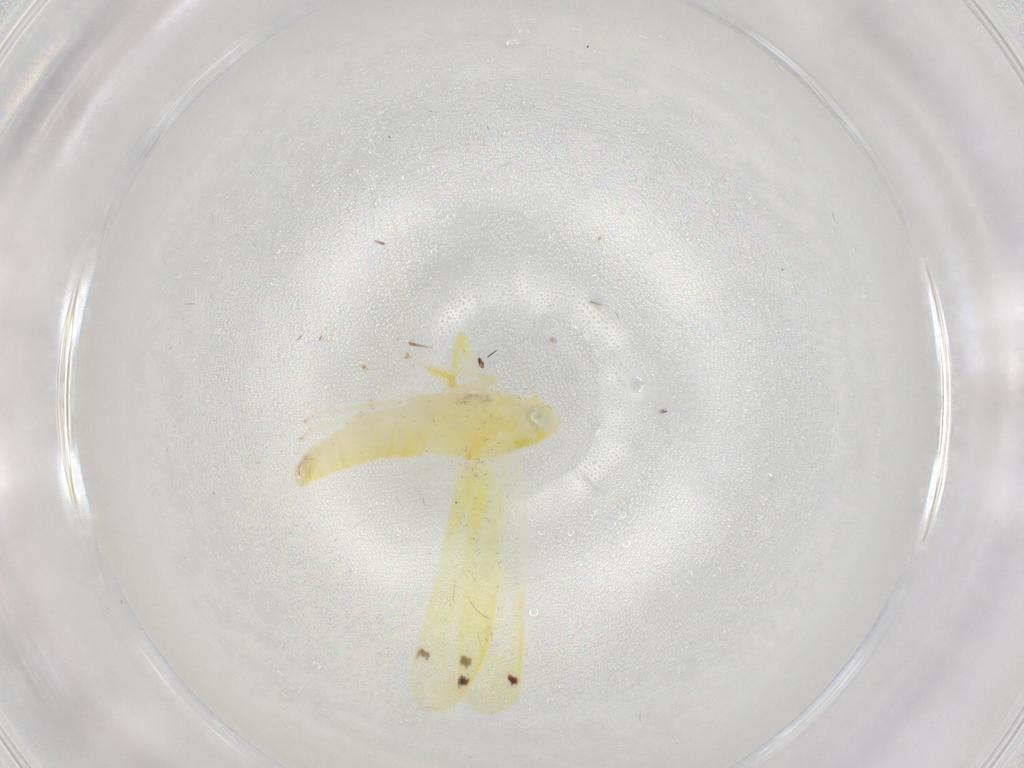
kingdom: Animalia
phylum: Arthropoda
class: Insecta
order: Hemiptera
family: Cicadellidae
